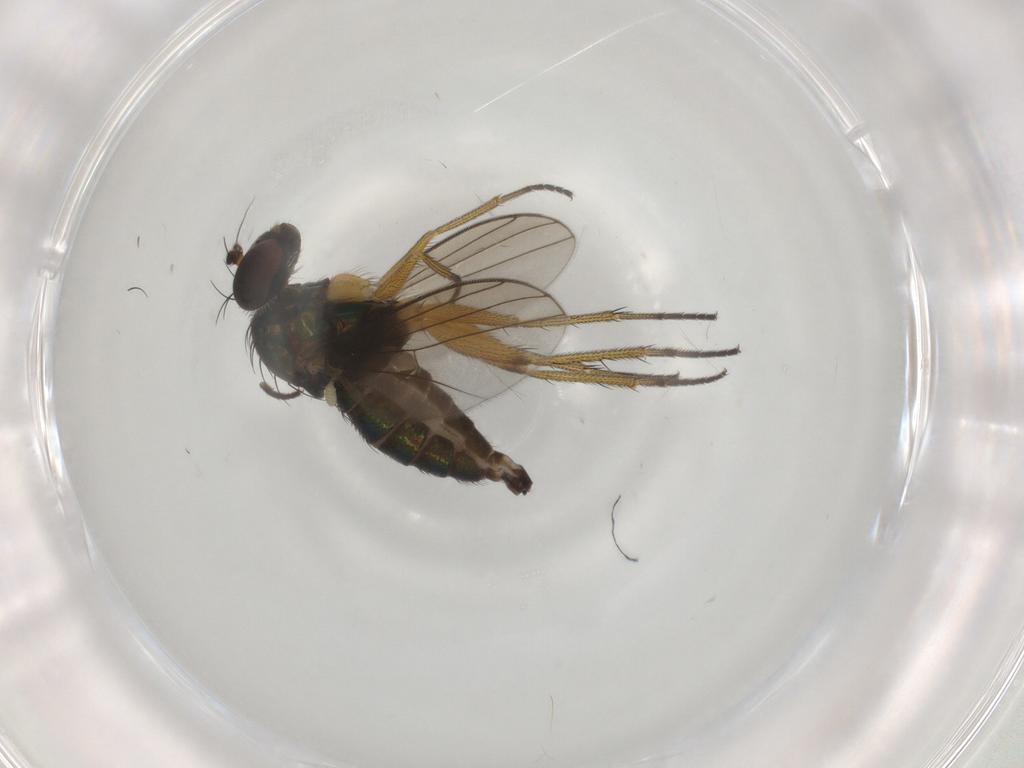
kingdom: Animalia
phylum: Arthropoda
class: Insecta
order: Diptera
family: Dolichopodidae
